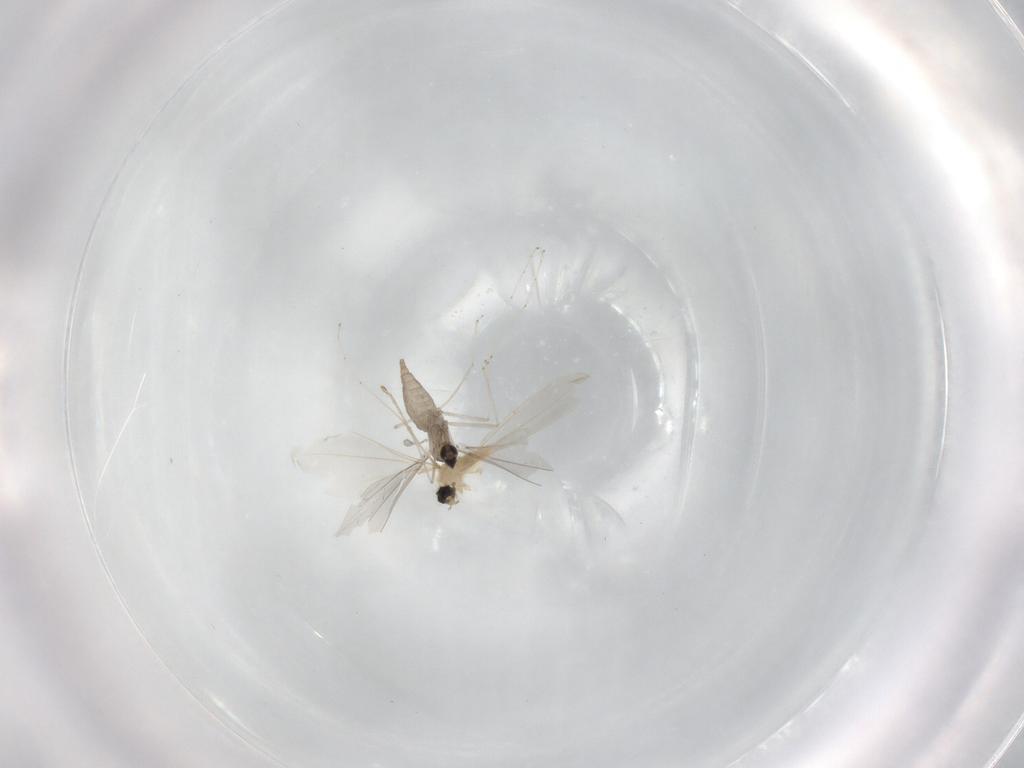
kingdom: Animalia
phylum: Arthropoda
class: Insecta
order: Diptera
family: Cecidomyiidae
